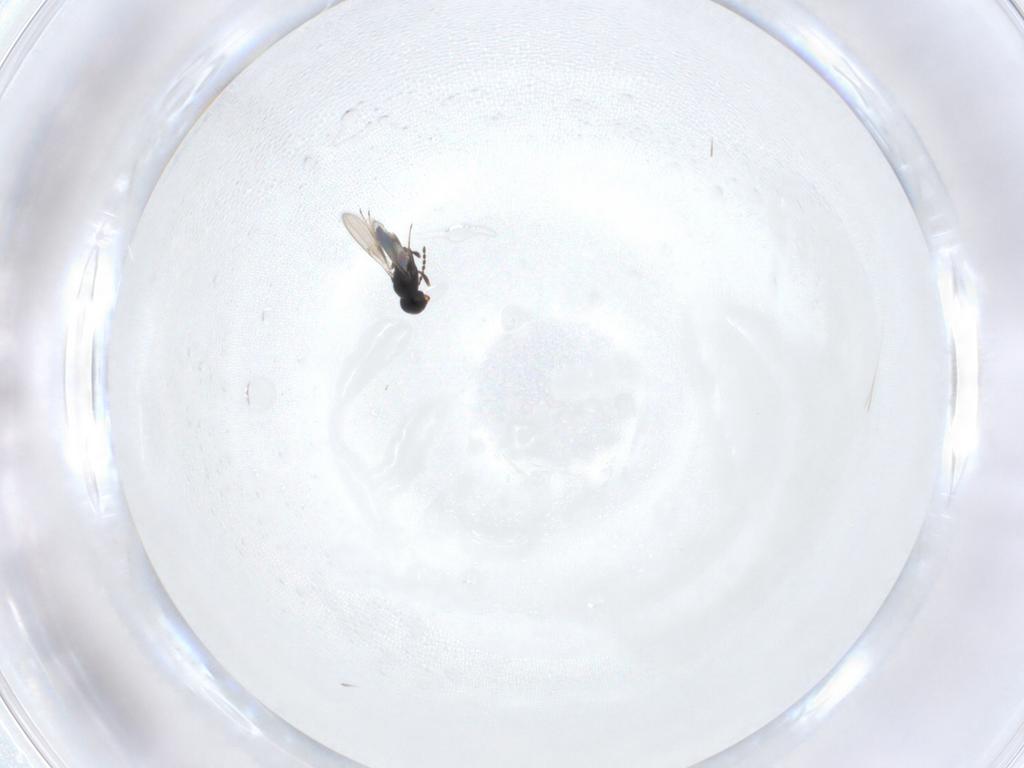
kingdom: Animalia
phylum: Arthropoda
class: Insecta
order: Hymenoptera
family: Scelionidae
